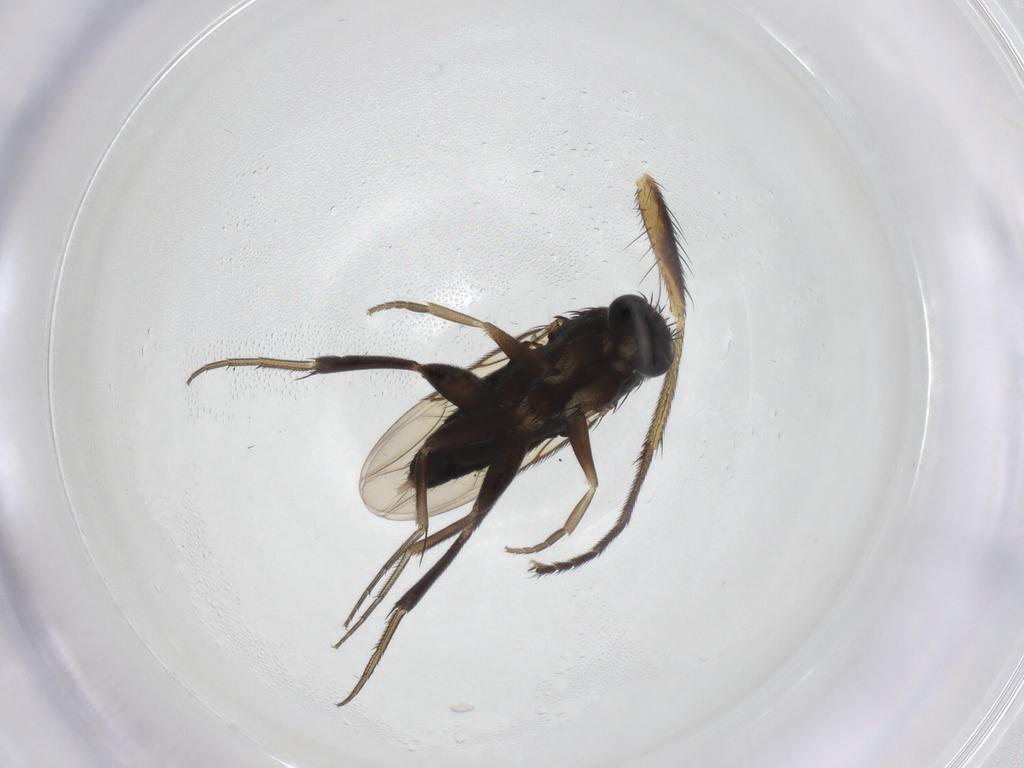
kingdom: Animalia
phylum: Arthropoda
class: Insecta
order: Diptera
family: Phoridae
